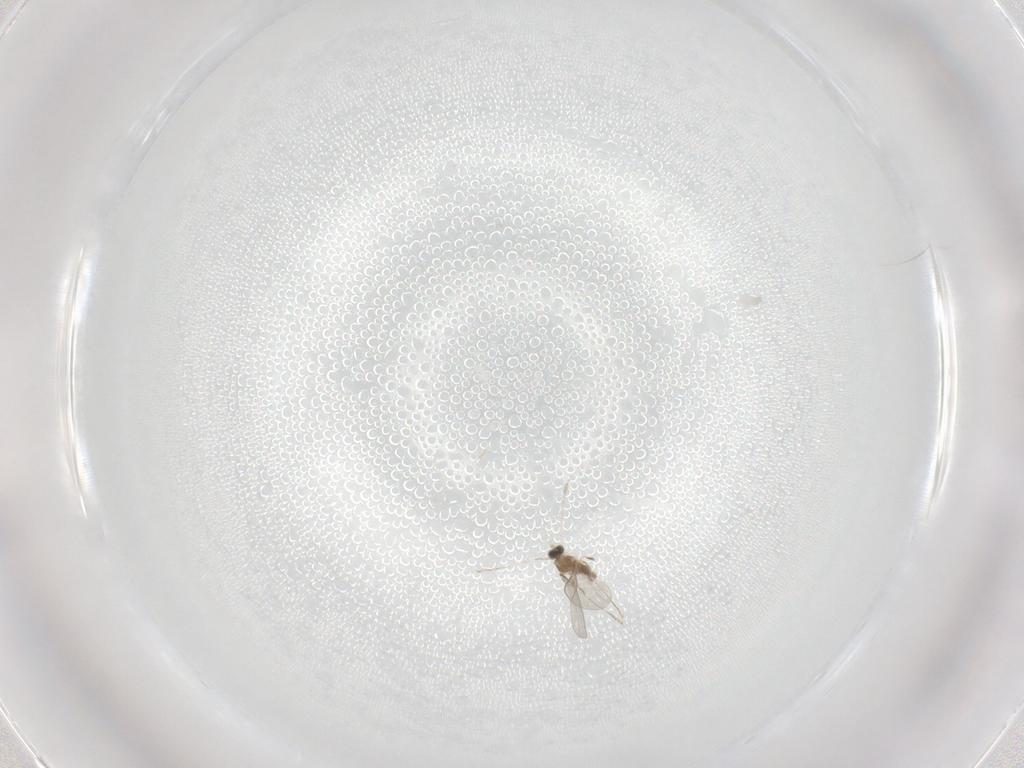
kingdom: Animalia
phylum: Arthropoda
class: Insecta
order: Diptera
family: Cecidomyiidae
